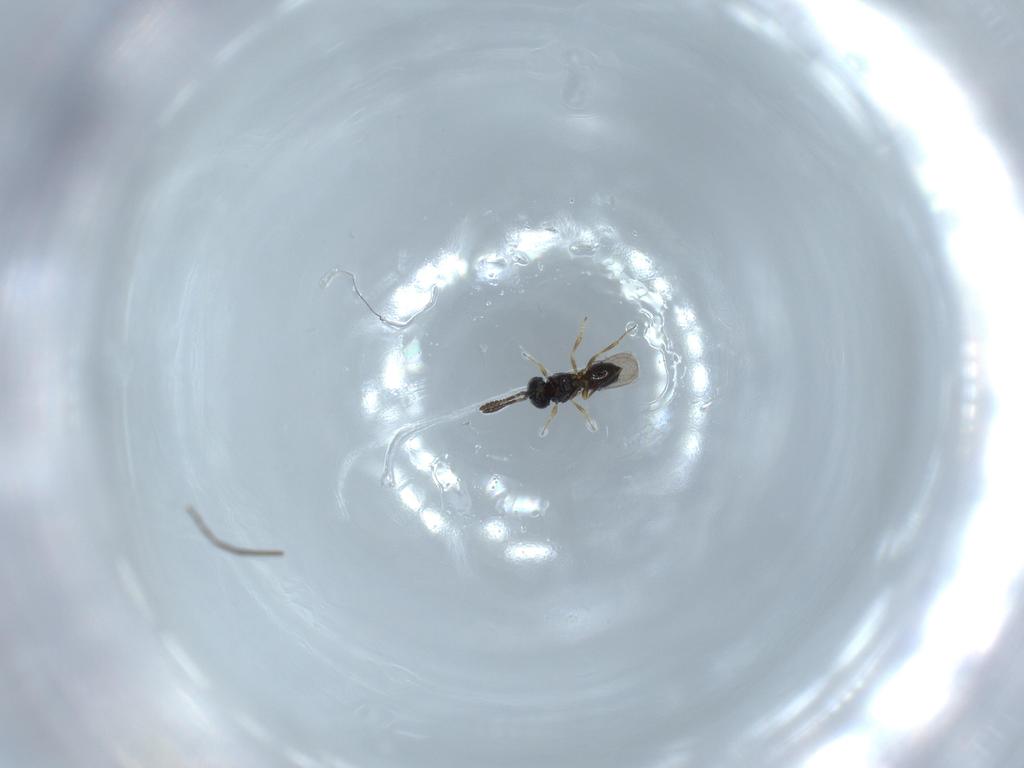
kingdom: Animalia
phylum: Arthropoda
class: Insecta
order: Hymenoptera
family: Scelionidae
